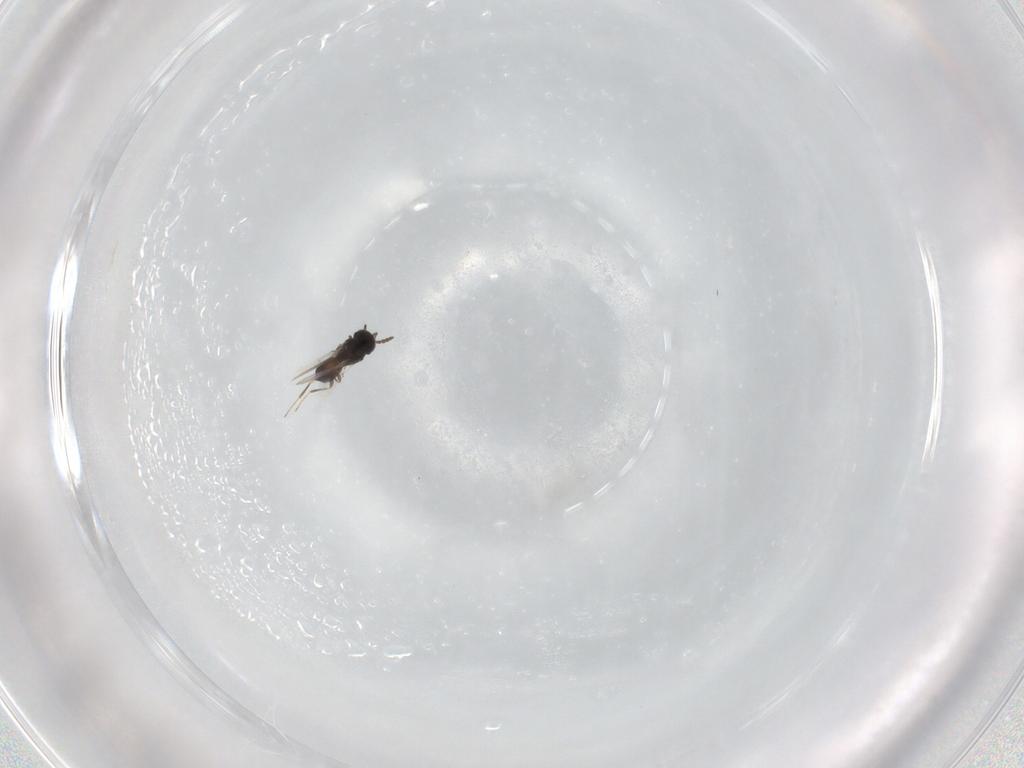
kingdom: Animalia
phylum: Arthropoda
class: Insecta
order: Hymenoptera
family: Scelionidae
